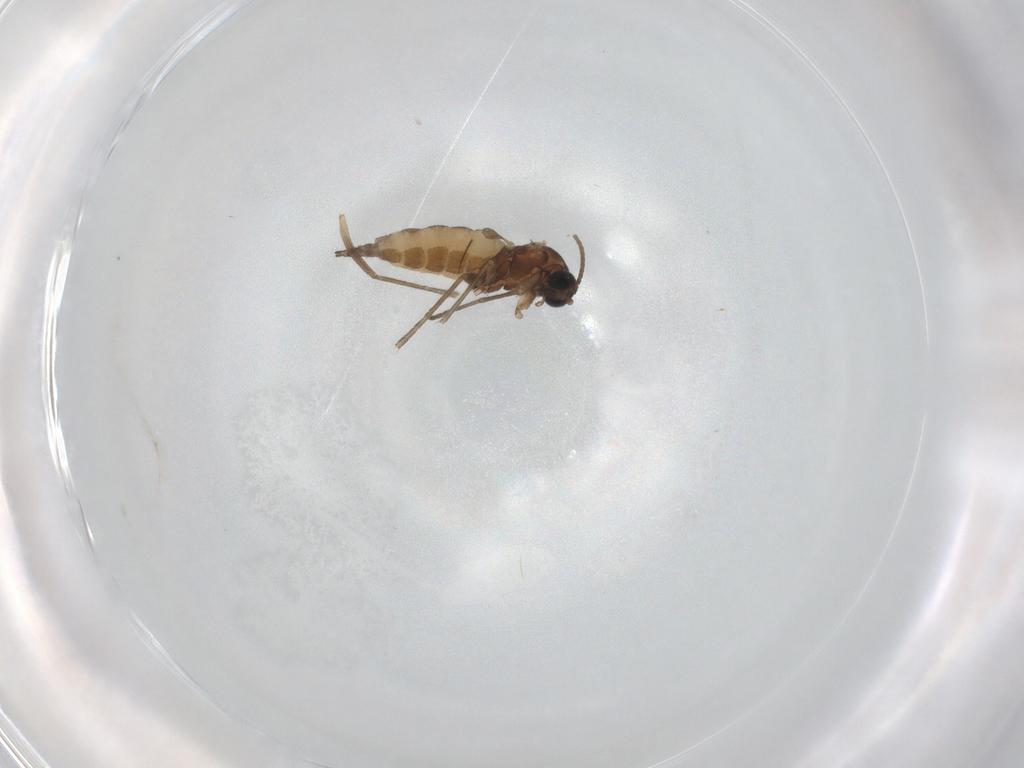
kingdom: Animalia
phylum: Arthropoda
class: Insecta
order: Diptera
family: Sciaridae
